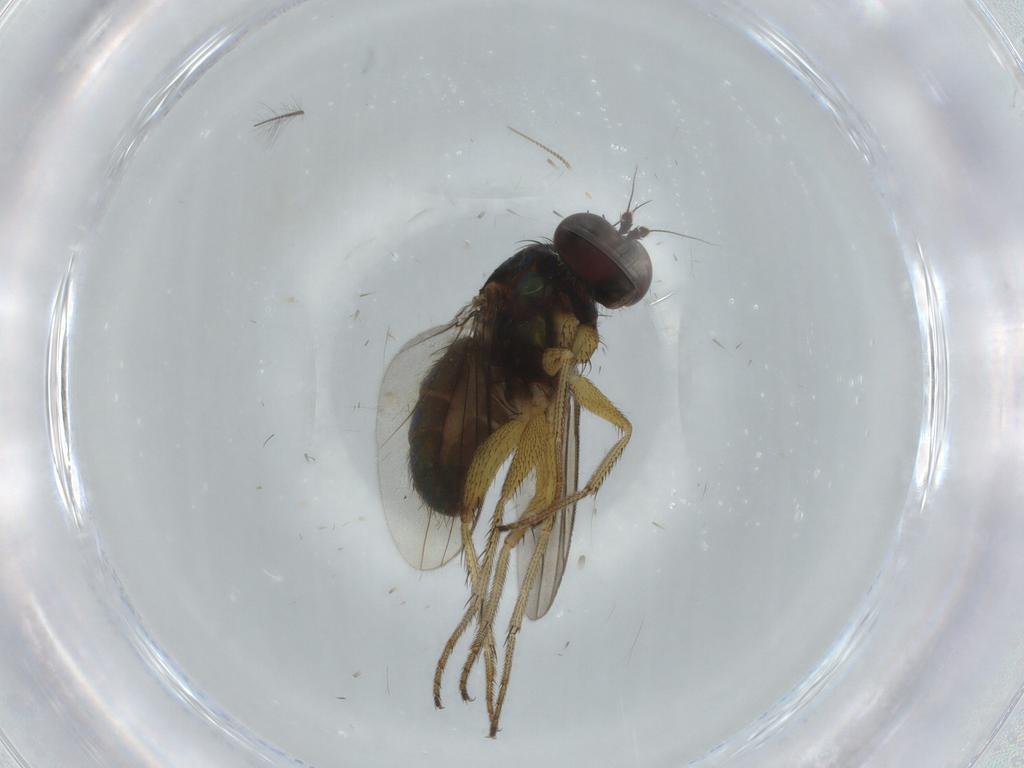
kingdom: Animalia
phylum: Arthropoda
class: Insecta
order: Diptera
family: Dolichopodidae
